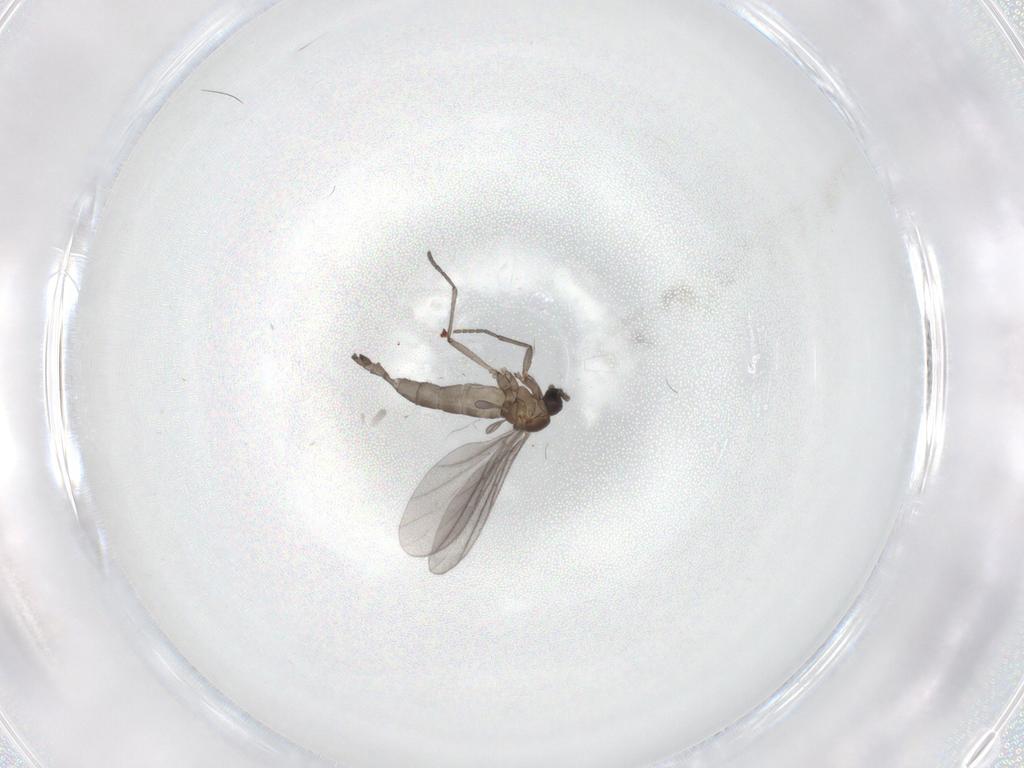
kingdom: Animalia
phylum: Arthropoda
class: Insecta
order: Diptera
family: Sciaridae
